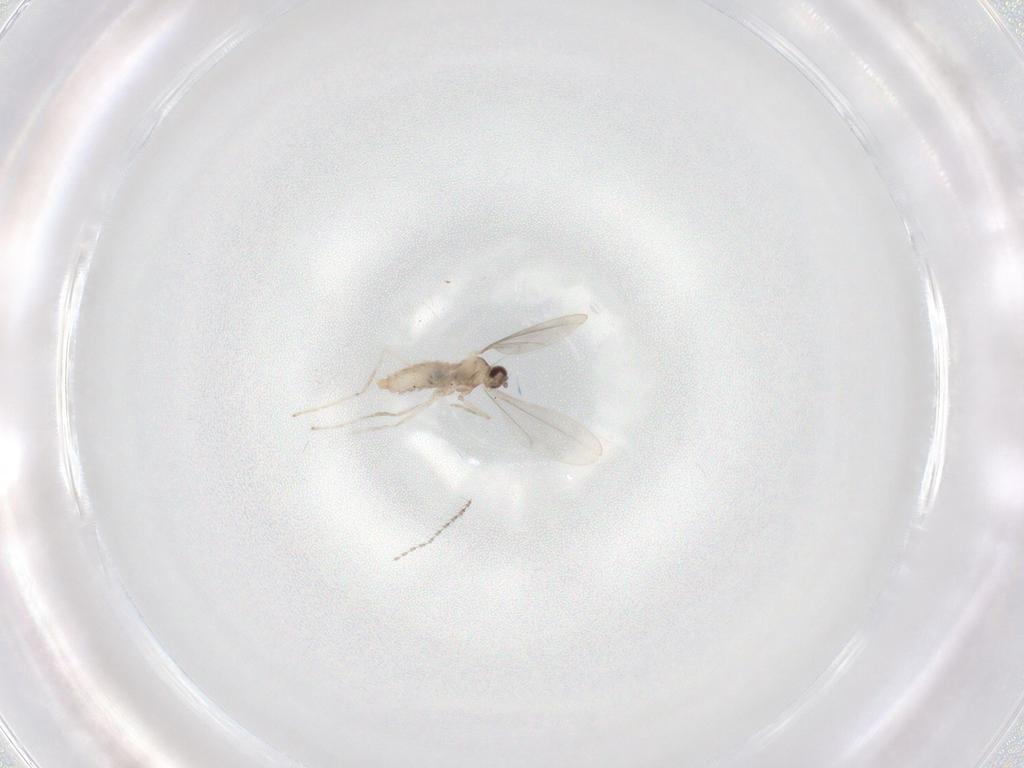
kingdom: Animalia
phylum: Arthropoda
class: Insecta
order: Diptera
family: Cecidomyiidae
